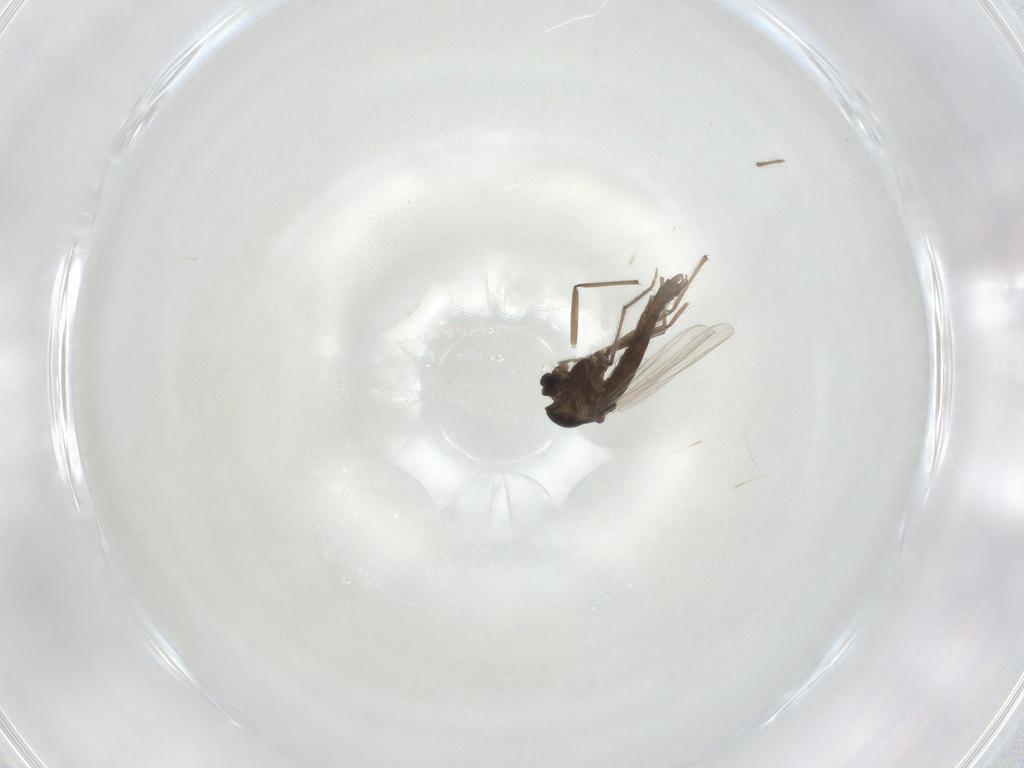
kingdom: Animalia
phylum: Arthropoda
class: Insecta
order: Diptera
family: Chironomidae
